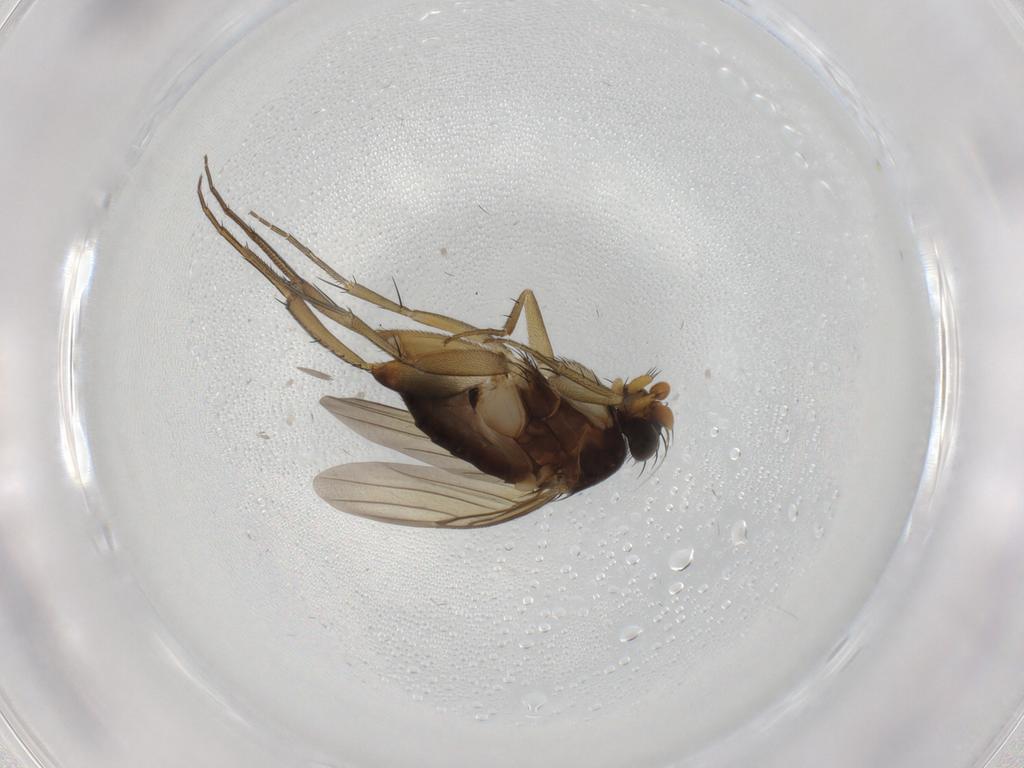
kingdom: Animalia
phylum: Arthropoda
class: Insecta
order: Diptera
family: Phoridae
